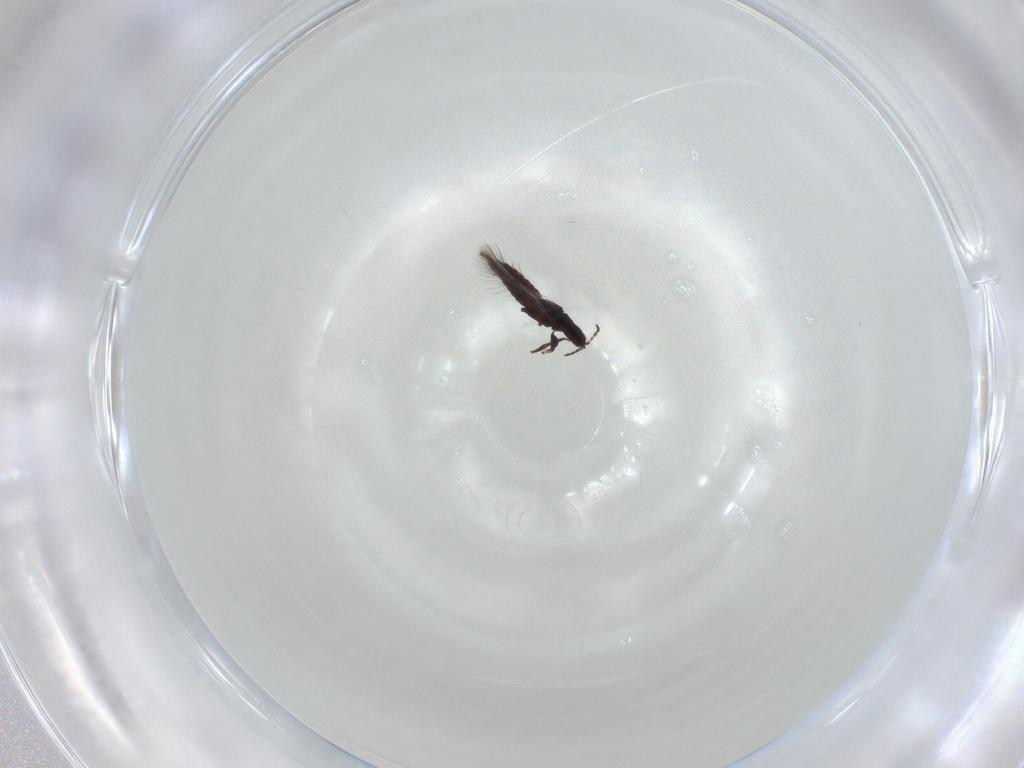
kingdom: Animalia
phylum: Arthropoda
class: Insecta
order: Thysanoptera
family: Phlaeothripidae
